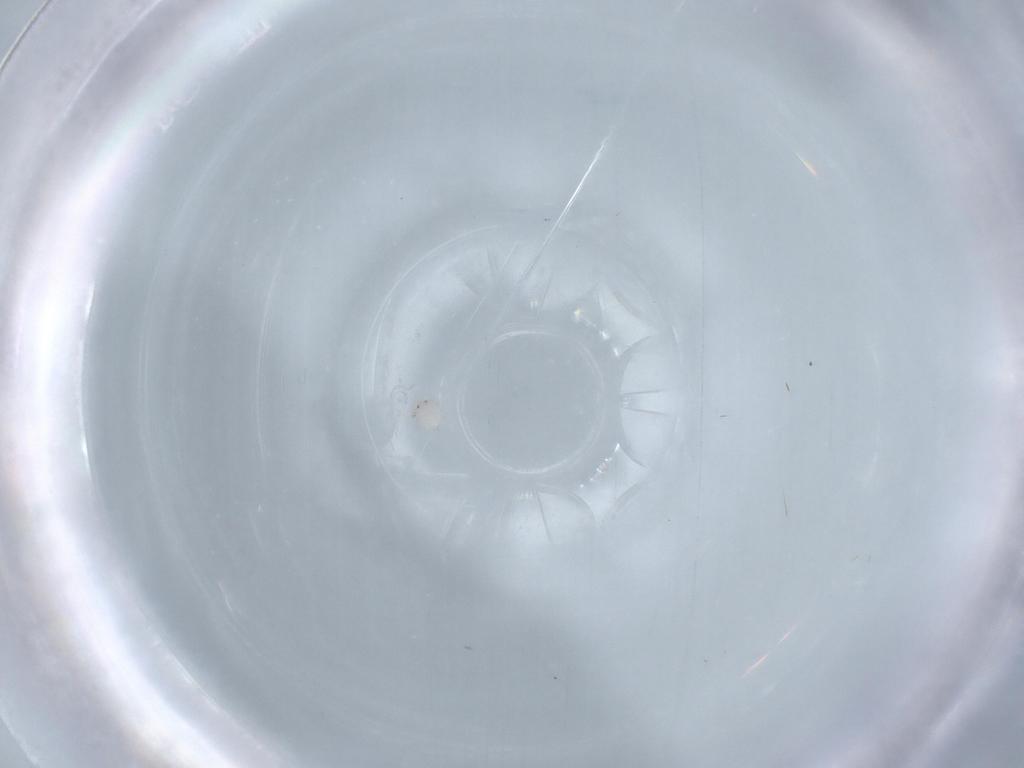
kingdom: Animalia
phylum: Arthropoda
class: Arachnida
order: Trombidiformes
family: Lebertiidae
